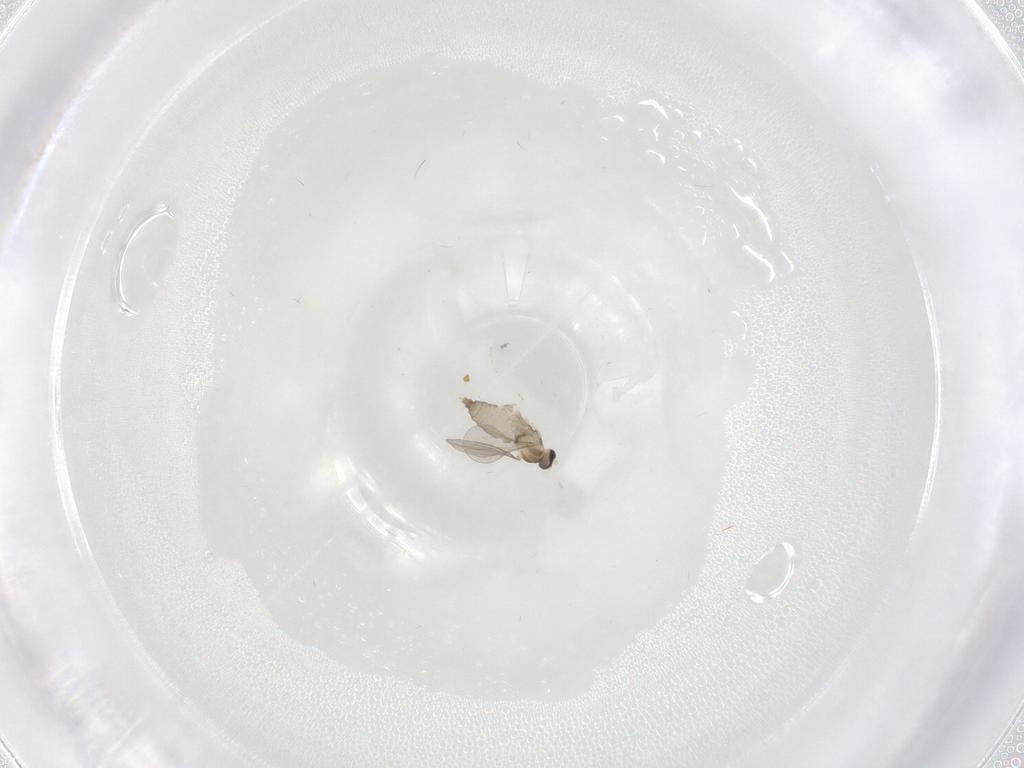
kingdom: Animalia
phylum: Arthropoda
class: Insecta
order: Diptera
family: Cecidomyiidae
